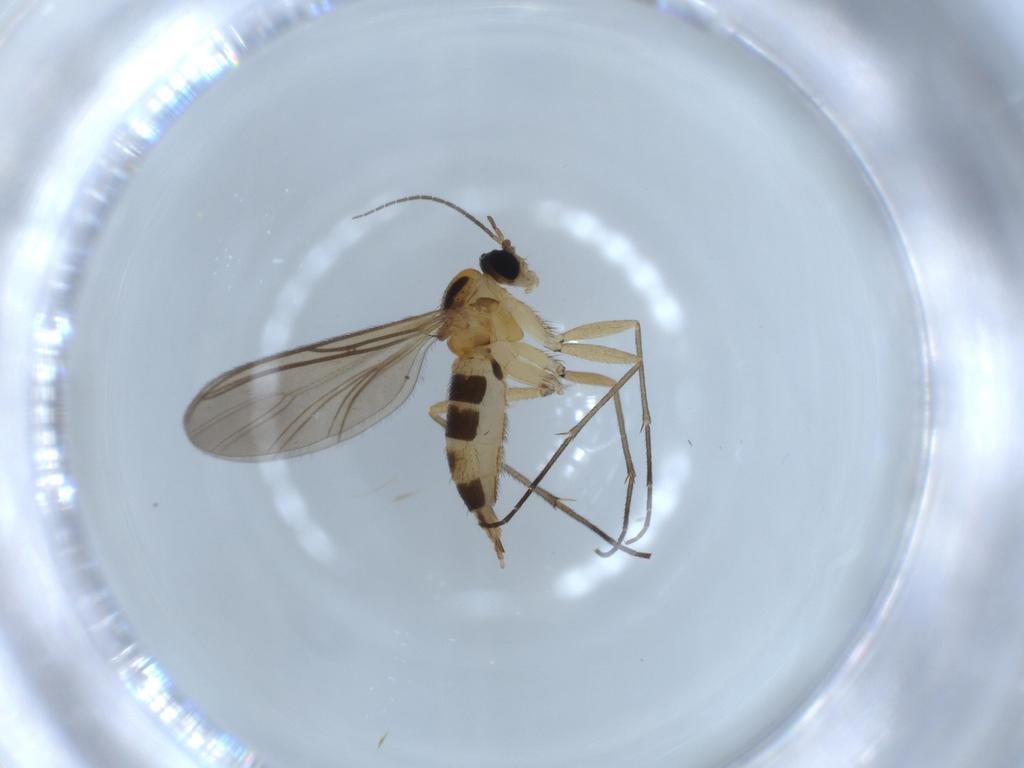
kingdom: Animalia
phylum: Arthropoda
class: Insecta
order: Diptera
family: Sciaridae
